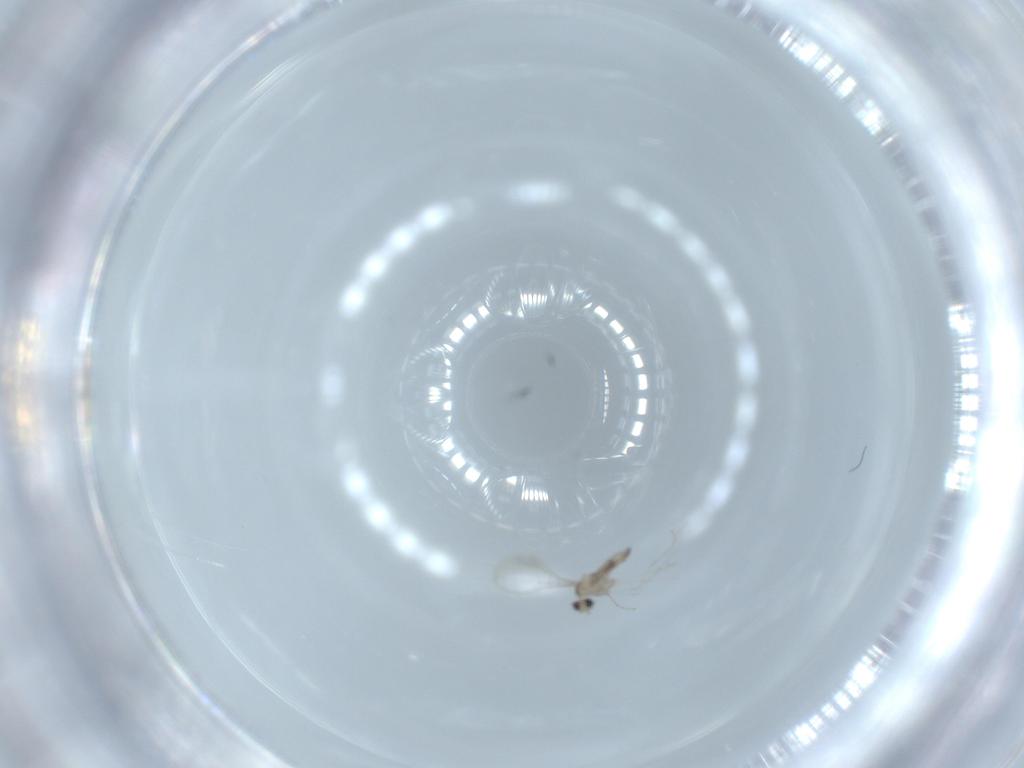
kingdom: Animalia
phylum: Arthropoda
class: Insecta
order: Diptera
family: Cecidomyiidae
